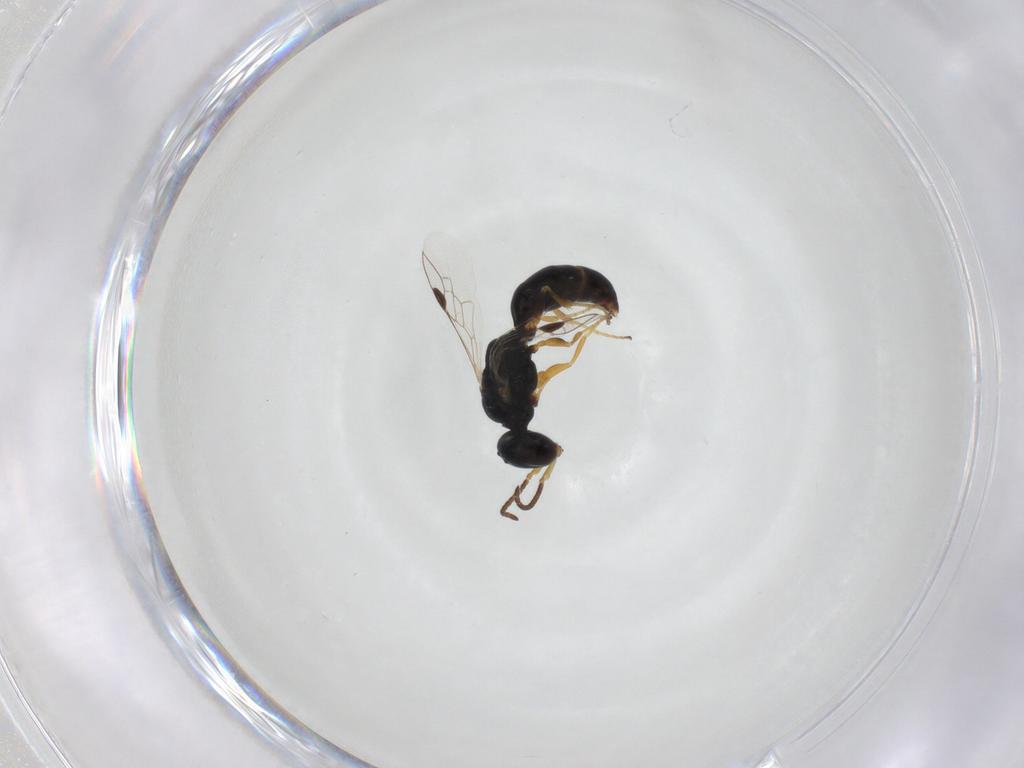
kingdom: Animalia
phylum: Arthropoda
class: Insecta
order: Hymenoptera
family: Pemphredonidae
